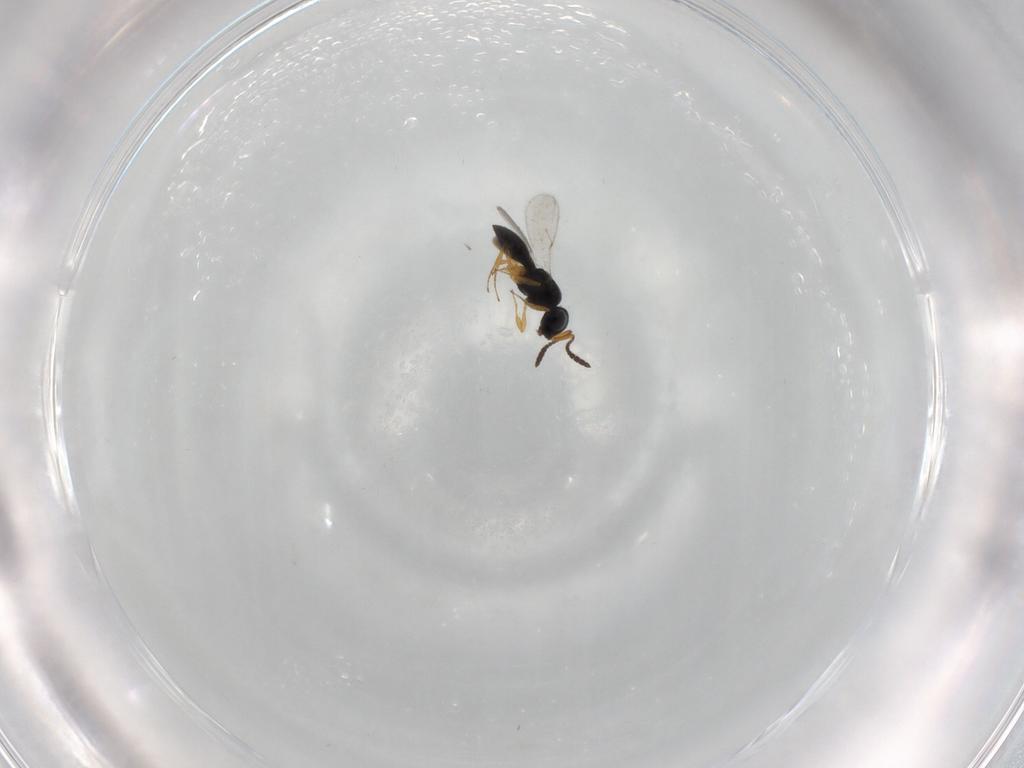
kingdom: Animalia
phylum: Arthropoda
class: Insecta
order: Hymenoptera
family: Scelionidae
